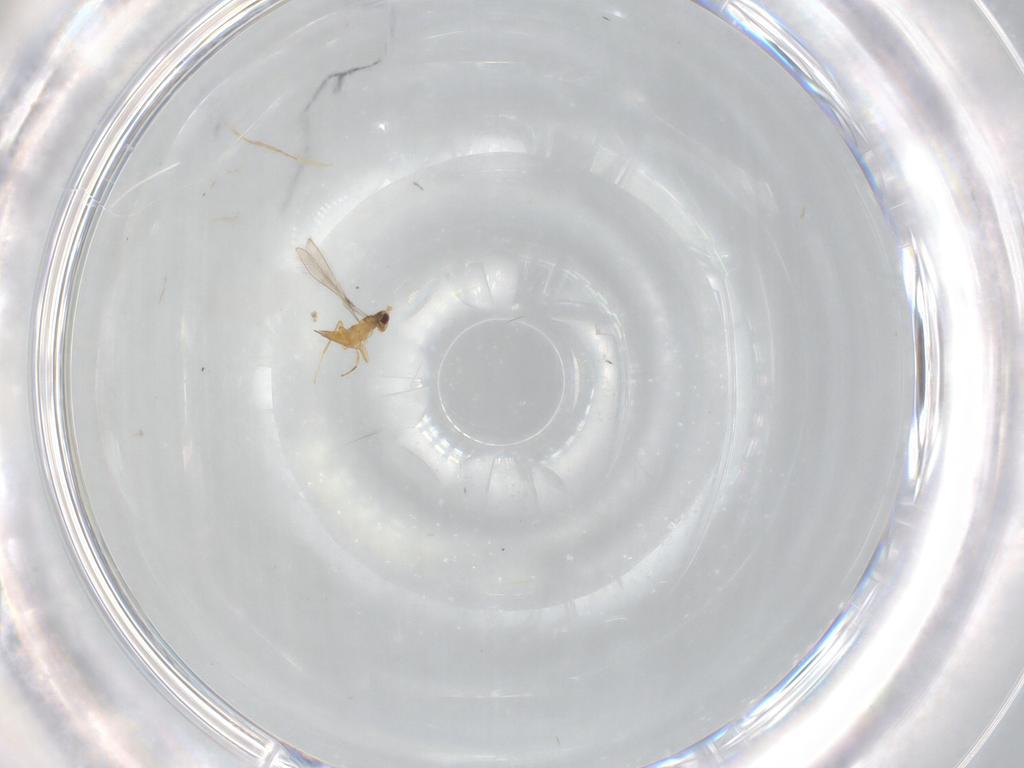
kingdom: Animalia
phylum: Arthropoda
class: Insecta
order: Hymenoptera
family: Mymaridae
